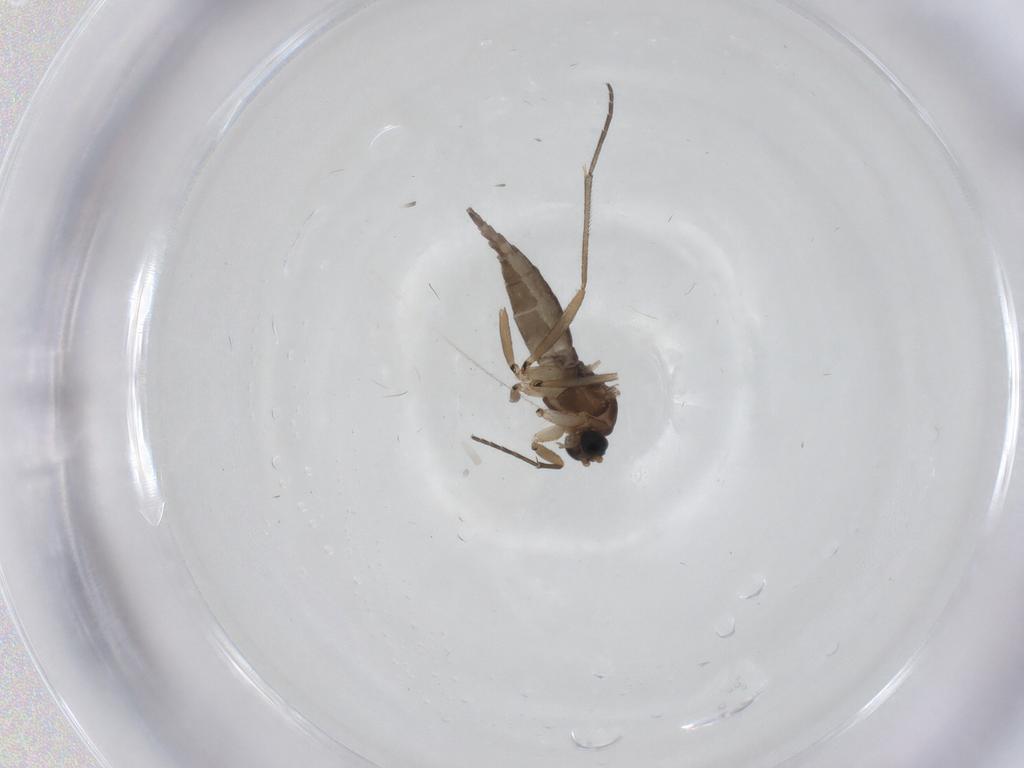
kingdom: Animalia
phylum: Arthropoda
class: Insecta
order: Diptera
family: Sciaridae
